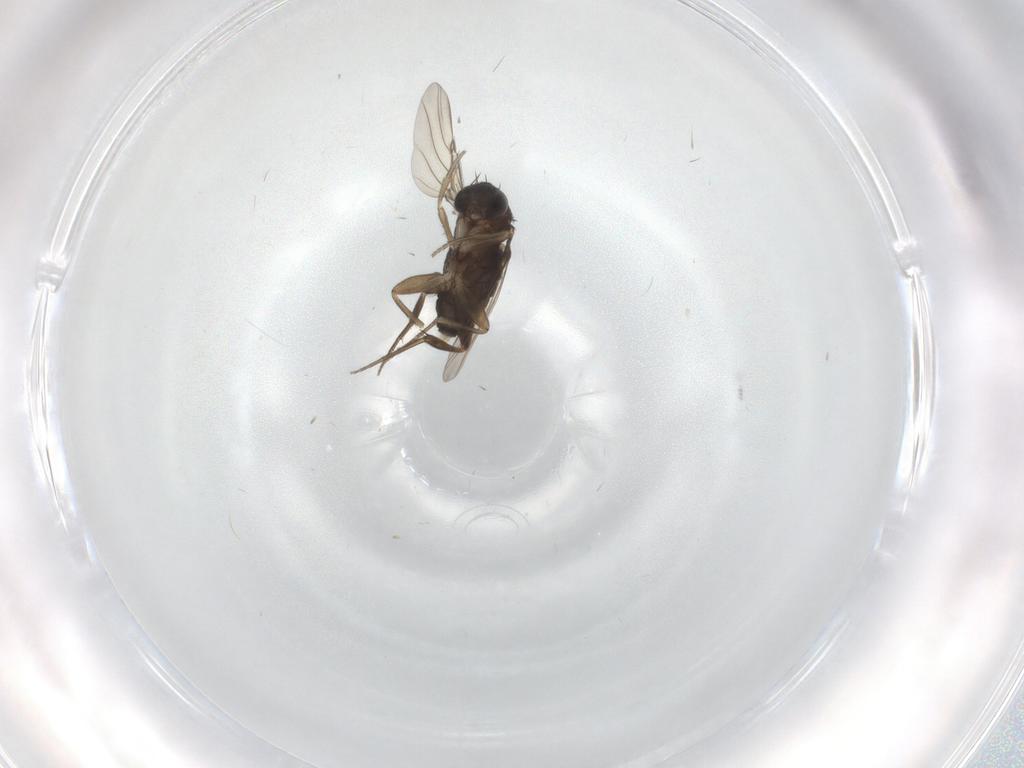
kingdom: Animalia
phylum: Arthropoda
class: Insecta
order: Diptera
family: Phoridae
